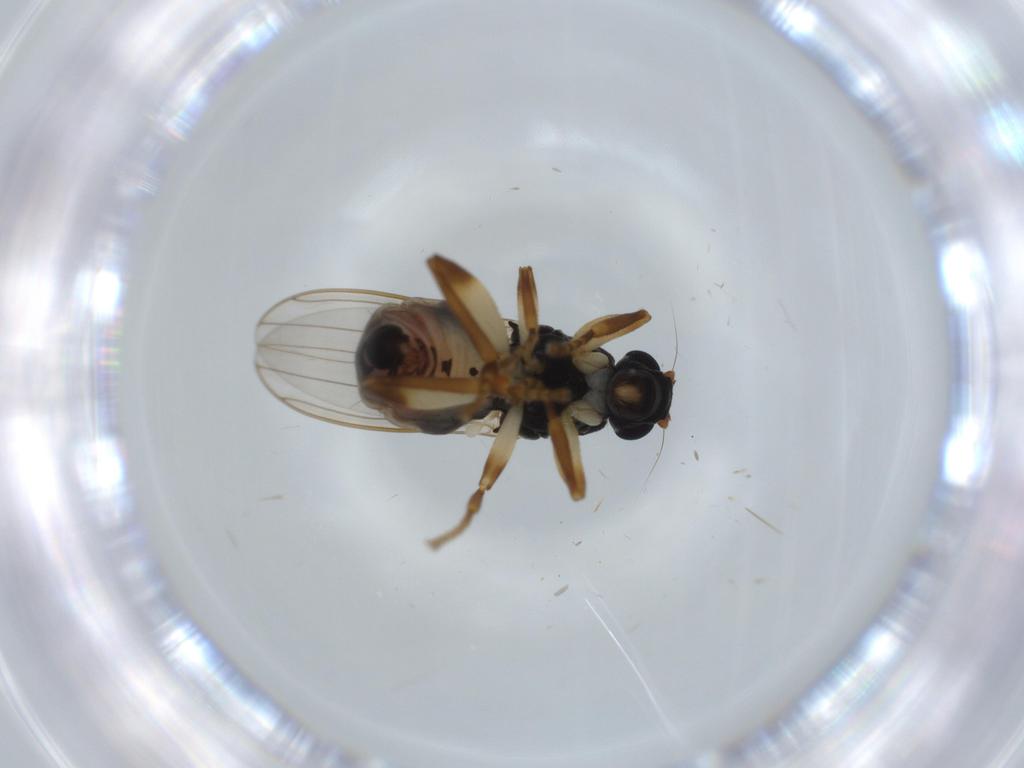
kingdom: Animalia
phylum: Arthropoda
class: Insecta
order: Diptera
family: Sphaeroceridae
